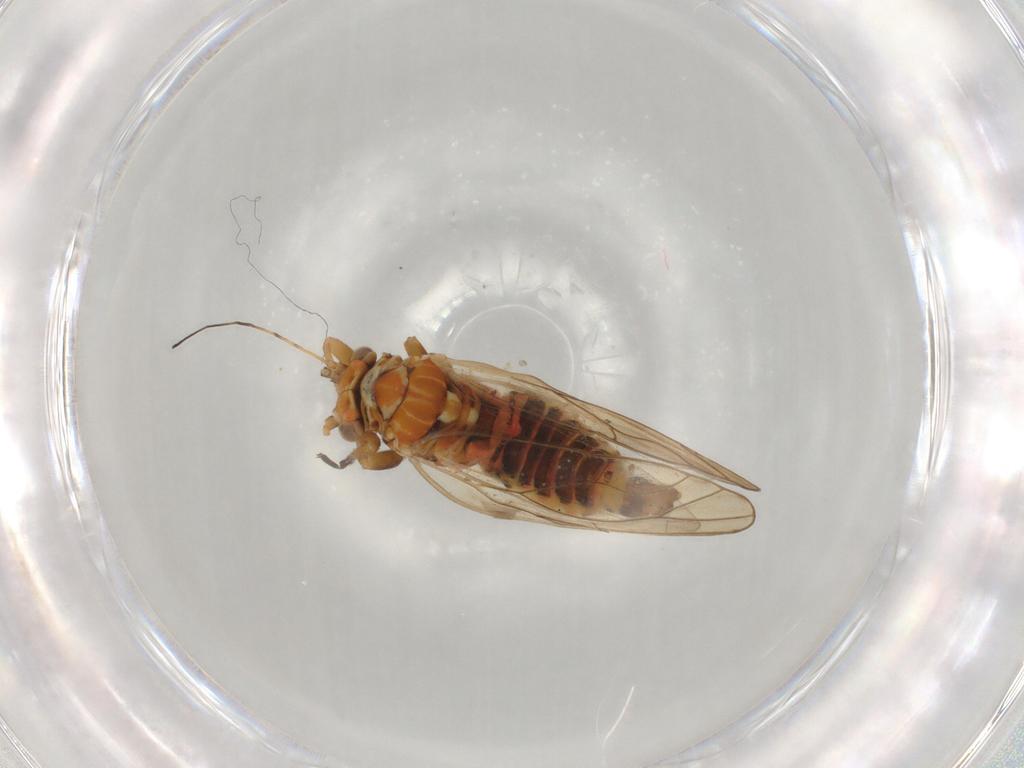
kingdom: Animalia
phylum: Arthropoda
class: Insecta
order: Hemiptera
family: Psyllidae
